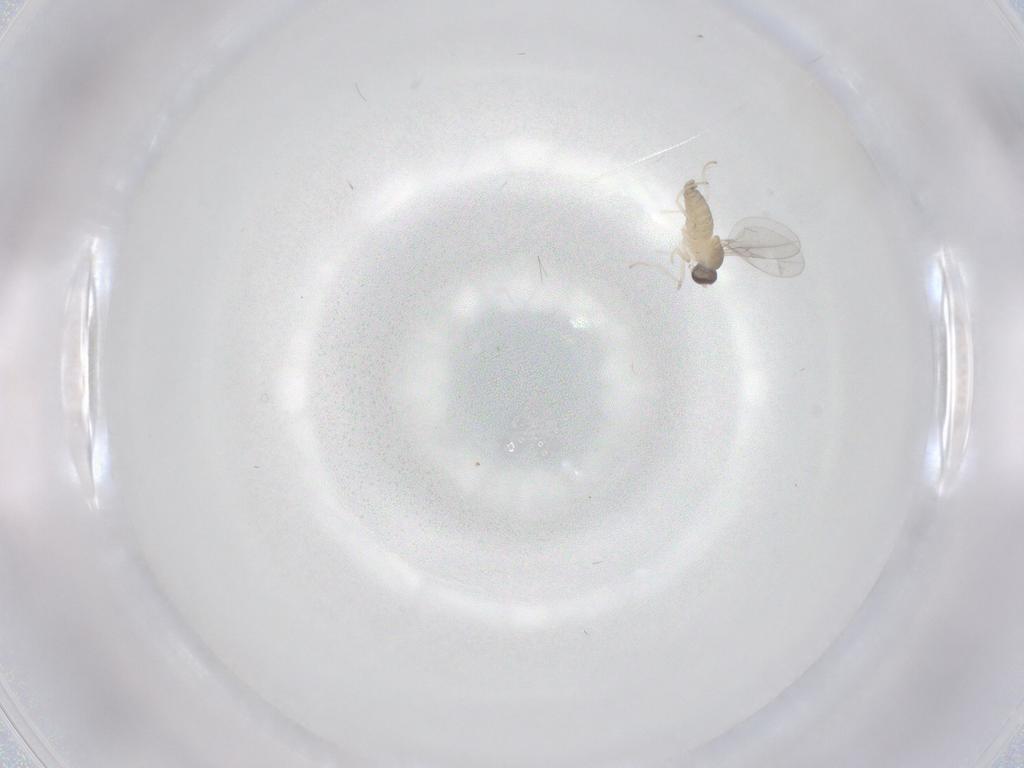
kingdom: Animalia
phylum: Arthropoda
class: Insecta
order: Diptera
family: Cecidomyiidae
